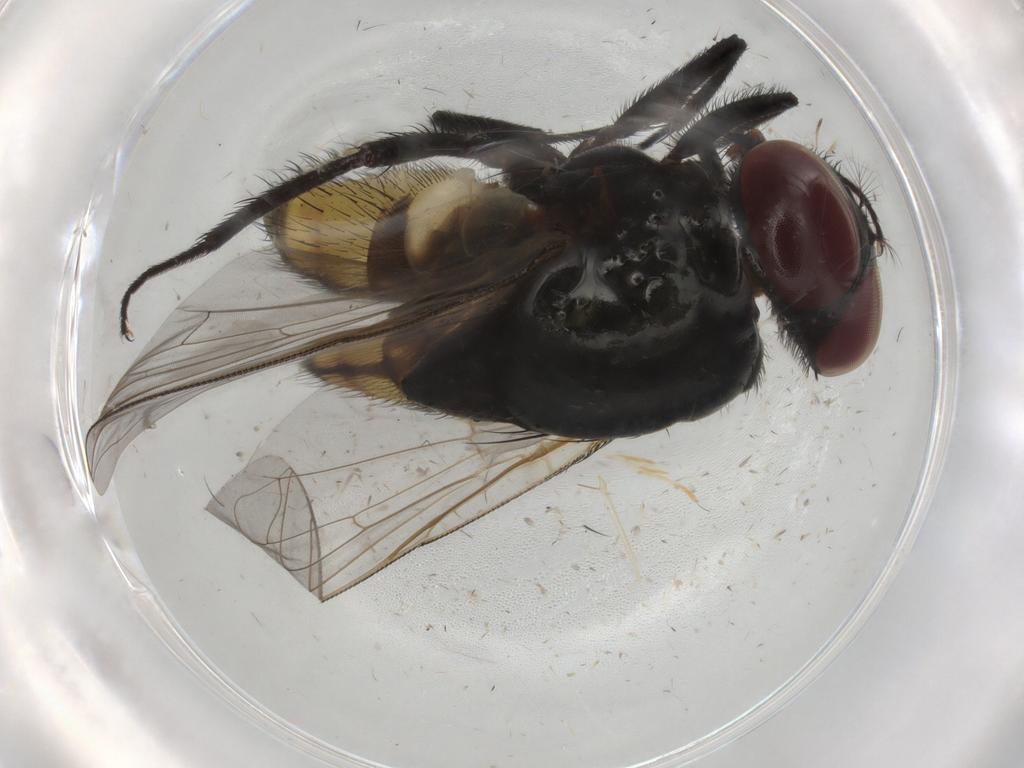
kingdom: Animalia
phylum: Arthropoda
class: Insecta
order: Diptera
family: Muscidae
